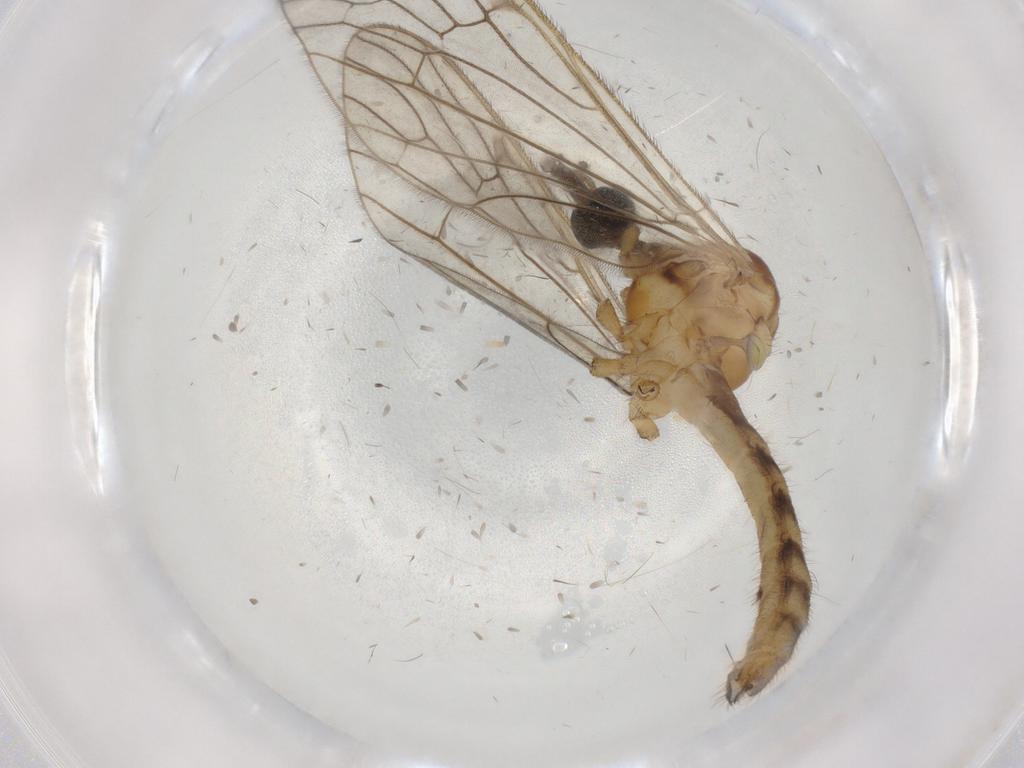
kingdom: Animalia
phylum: Arthropoda
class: Insecta
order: Diptera
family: Limoniidae
